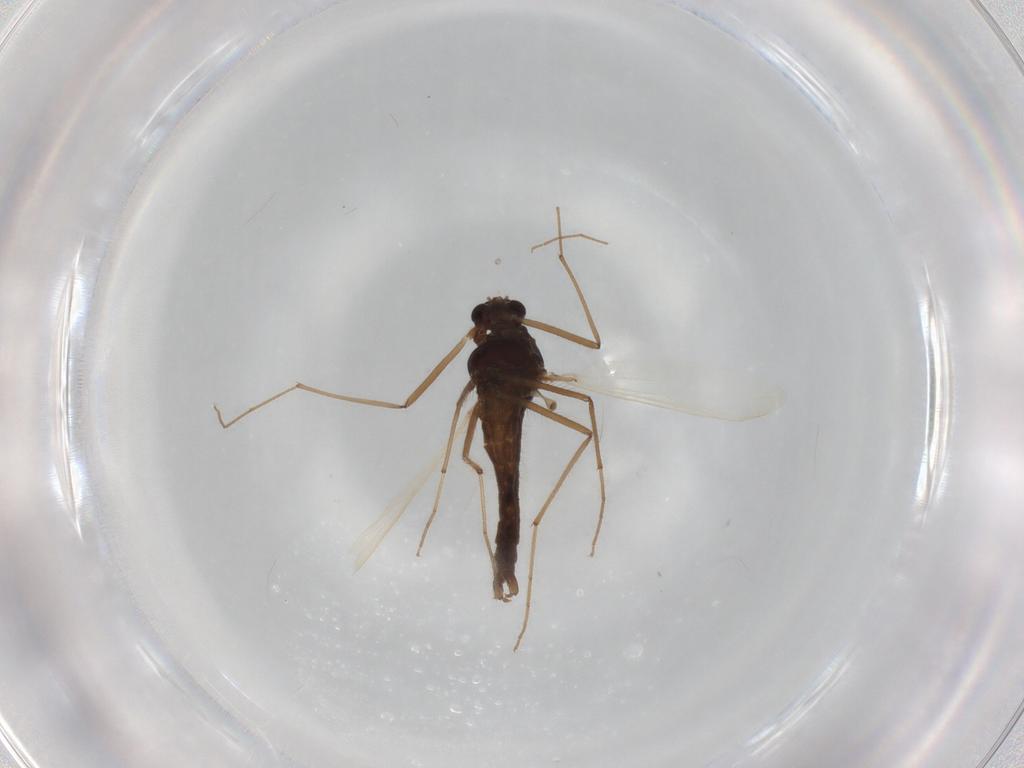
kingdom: Animalia
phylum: Arthropoda
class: Insecta
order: Diptera
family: Chironomidae
